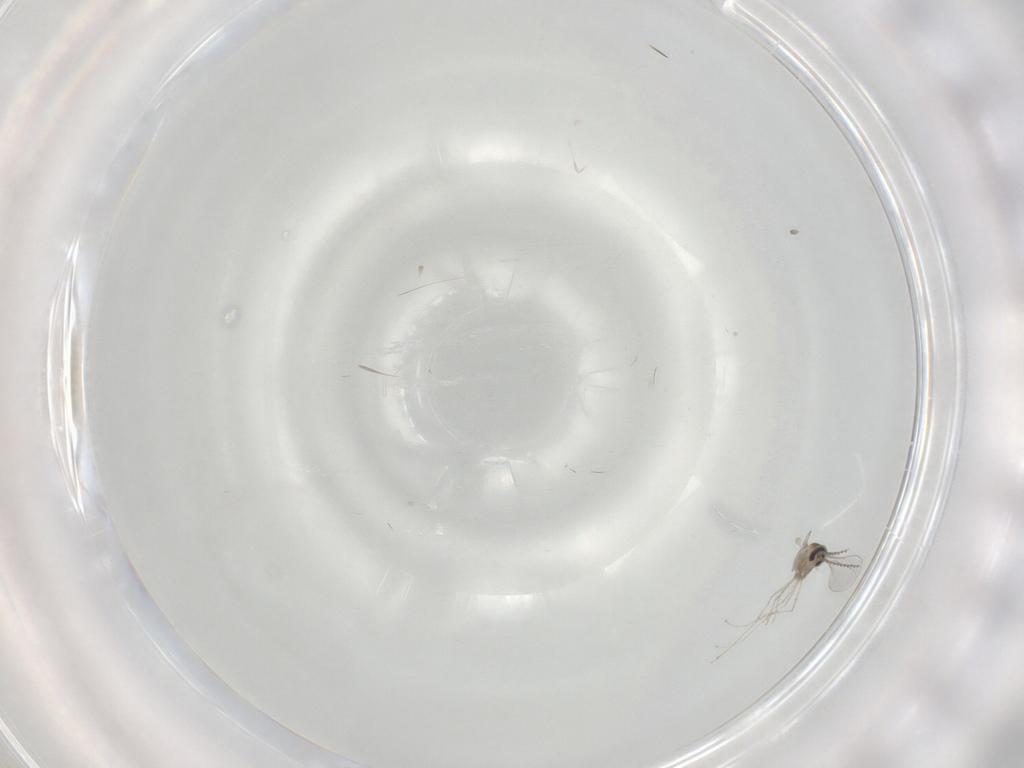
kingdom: Animalia
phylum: Arthropoda
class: Insecta
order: Diptera
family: Cecidomyiidae
